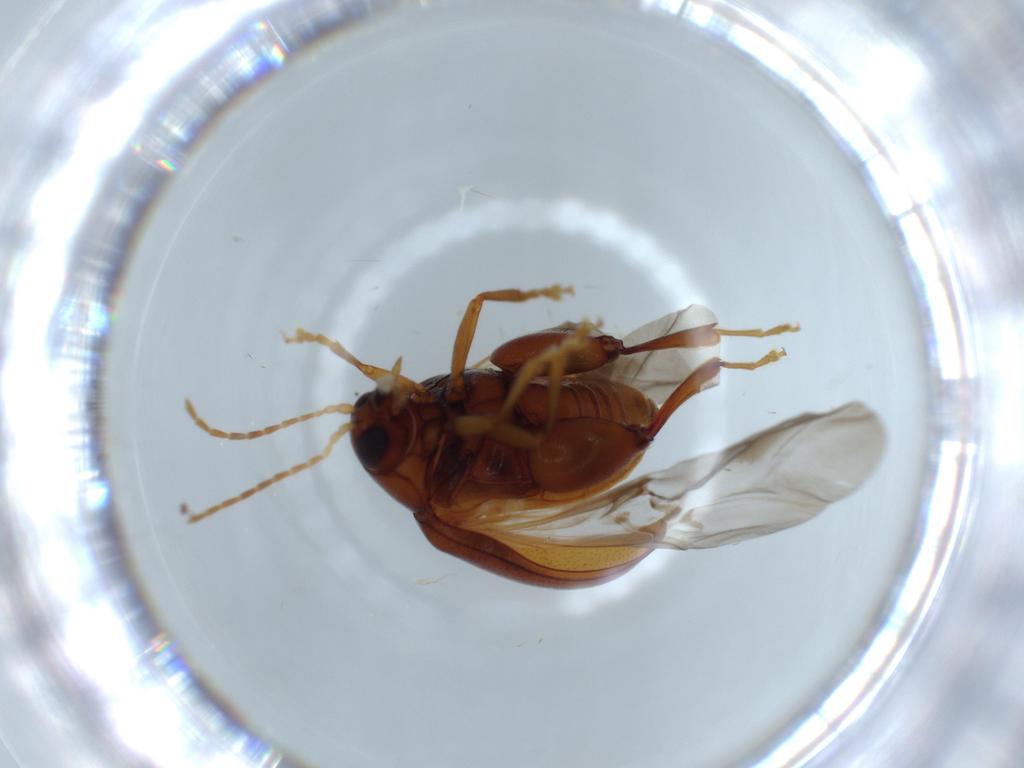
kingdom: Animalia
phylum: Arthropoda
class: Insecta
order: Coleoptera
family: Chrysomelidae
